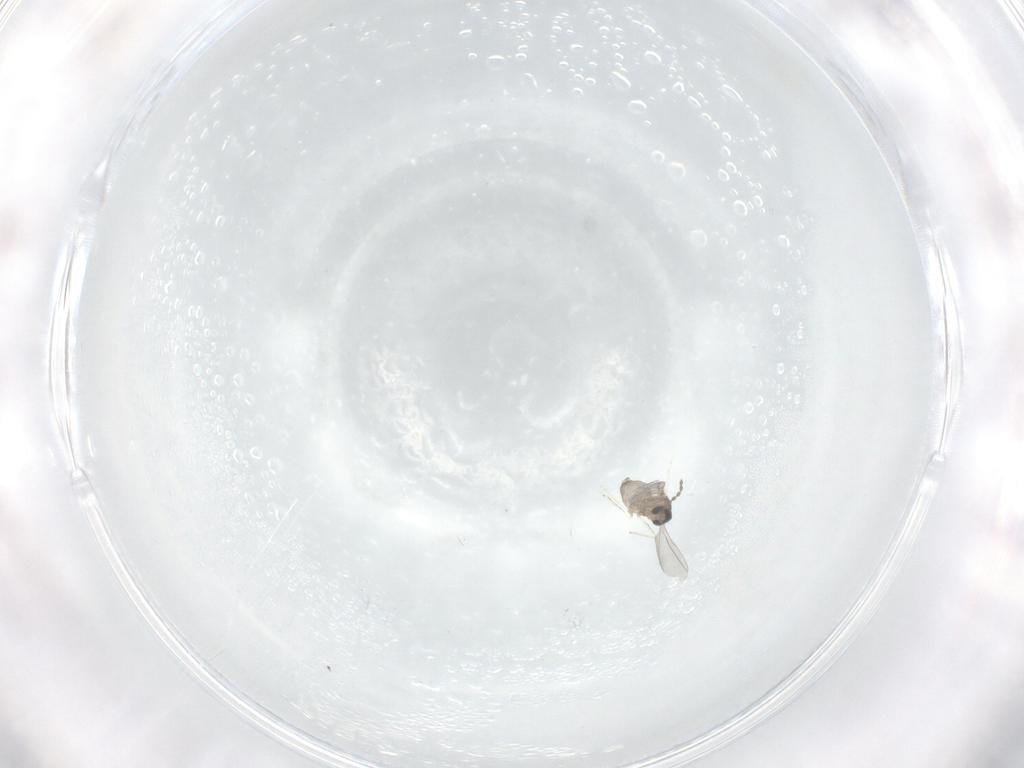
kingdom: Animalia
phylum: Arthropoda
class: Insecta
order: Diptera
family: Cecidomyiidae
